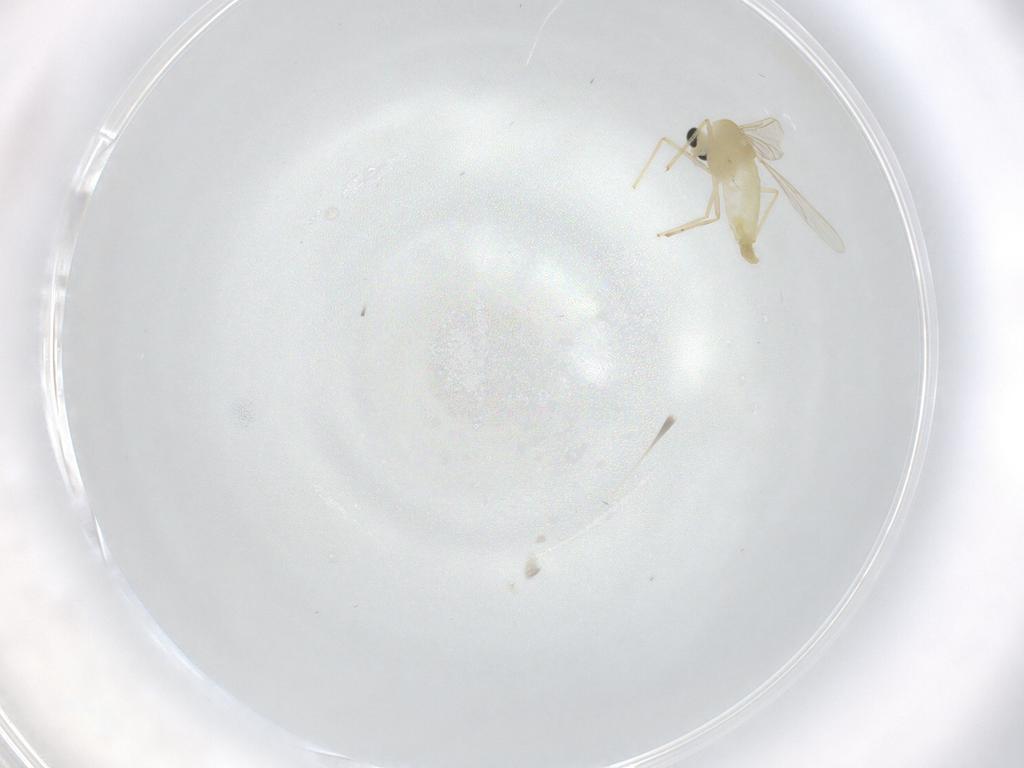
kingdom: Animalia
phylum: Arthropoda
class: Insecta
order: Diptera
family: Chironomidae
